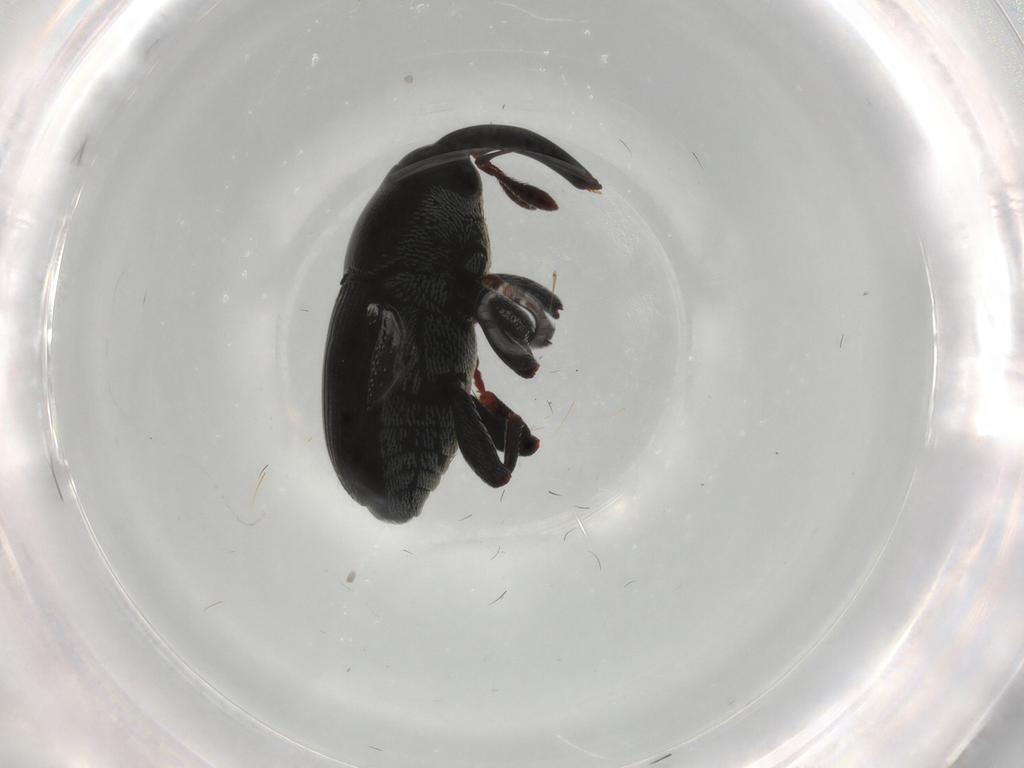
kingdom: Animalia
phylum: Arthropoda
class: Insecta
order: Coleoptera
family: Curculionidae
